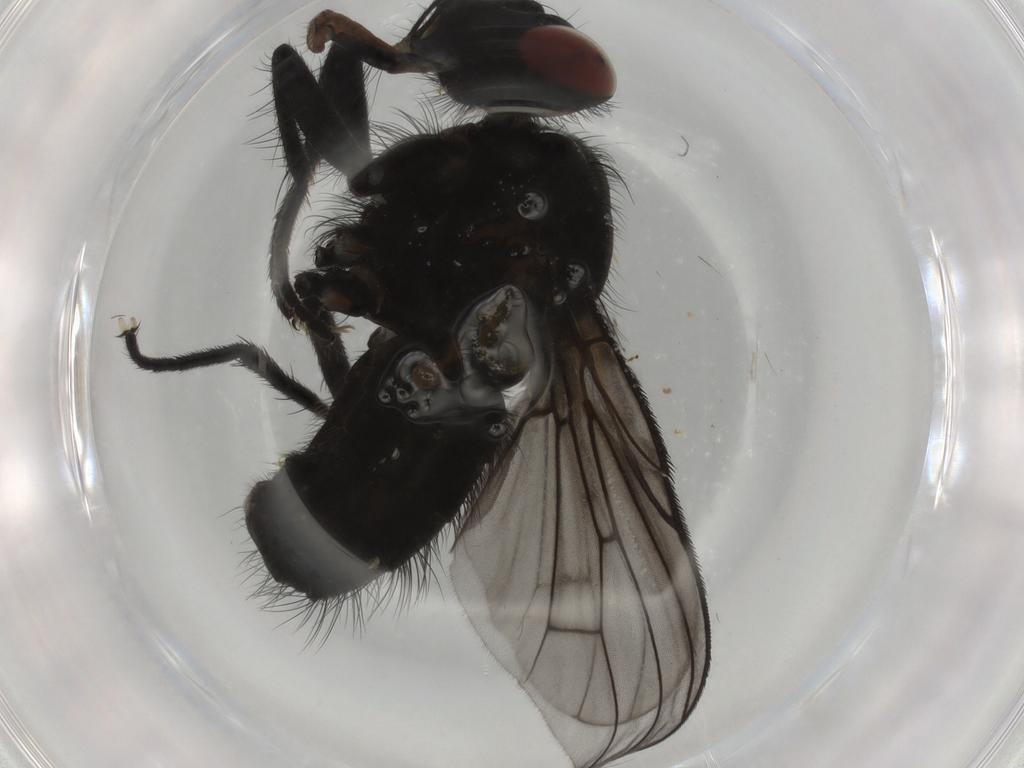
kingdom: Animalia
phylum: Arthropoda
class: Insecta
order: Diptera
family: Muscidae
